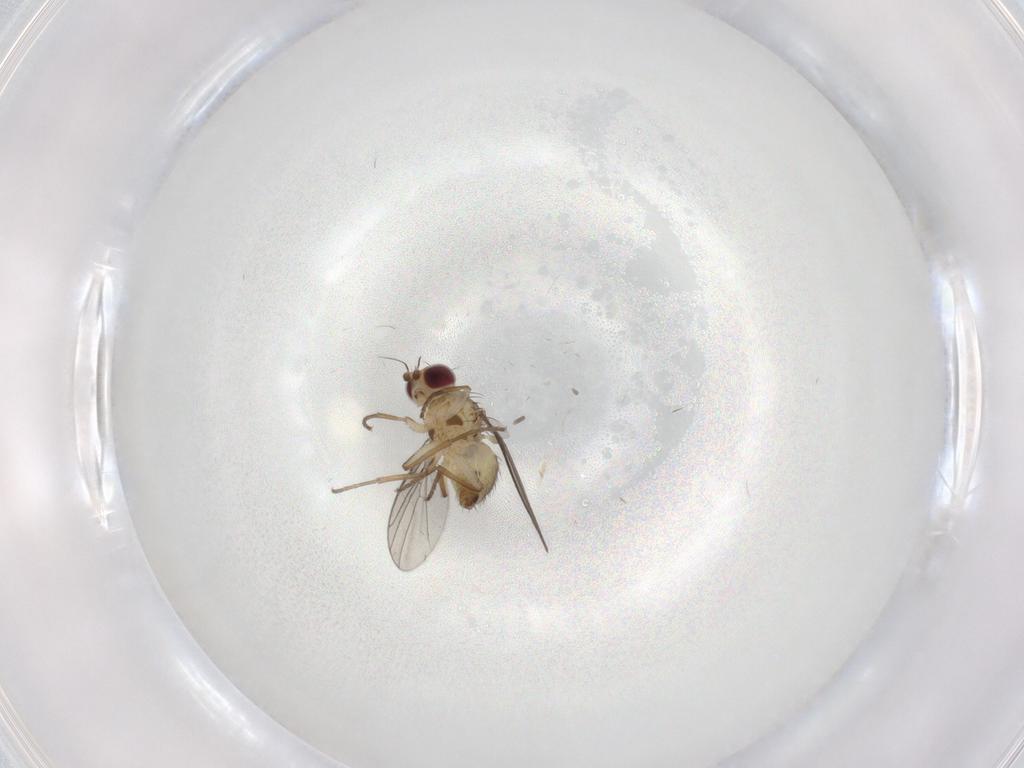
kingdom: Animalia
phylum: Arthropoda
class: Insecta
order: Diptera
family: Agromyzidae
